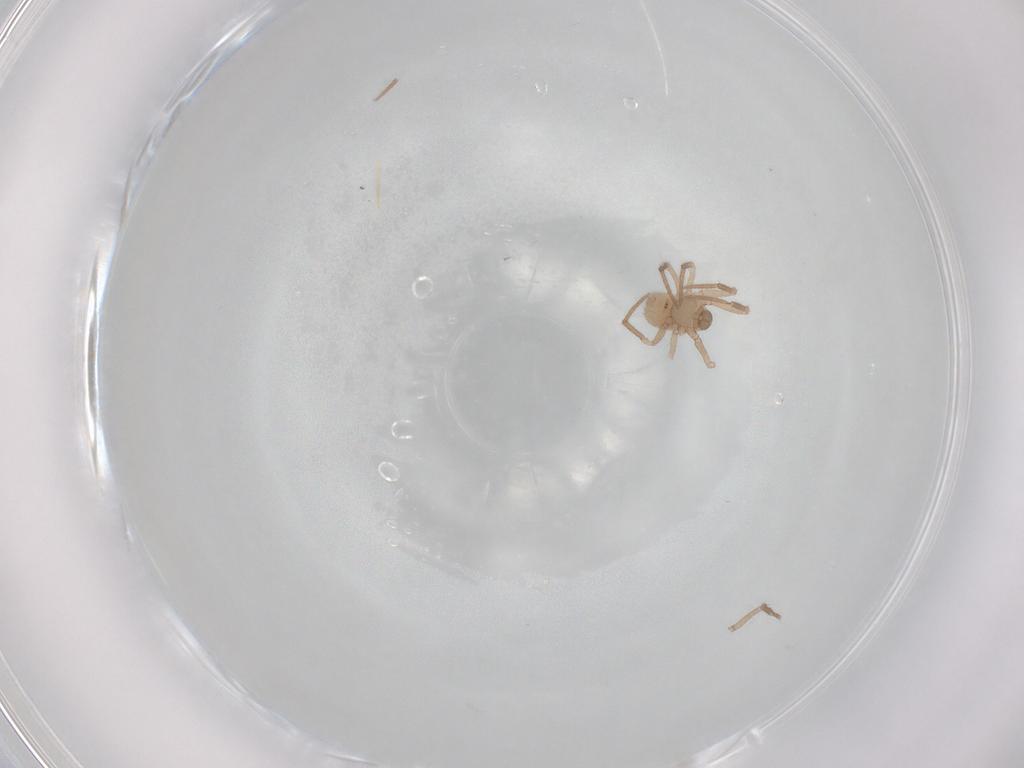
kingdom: Animalia
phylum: Arthropoda
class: Arachnida
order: Araneae
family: Symphytognathidae
